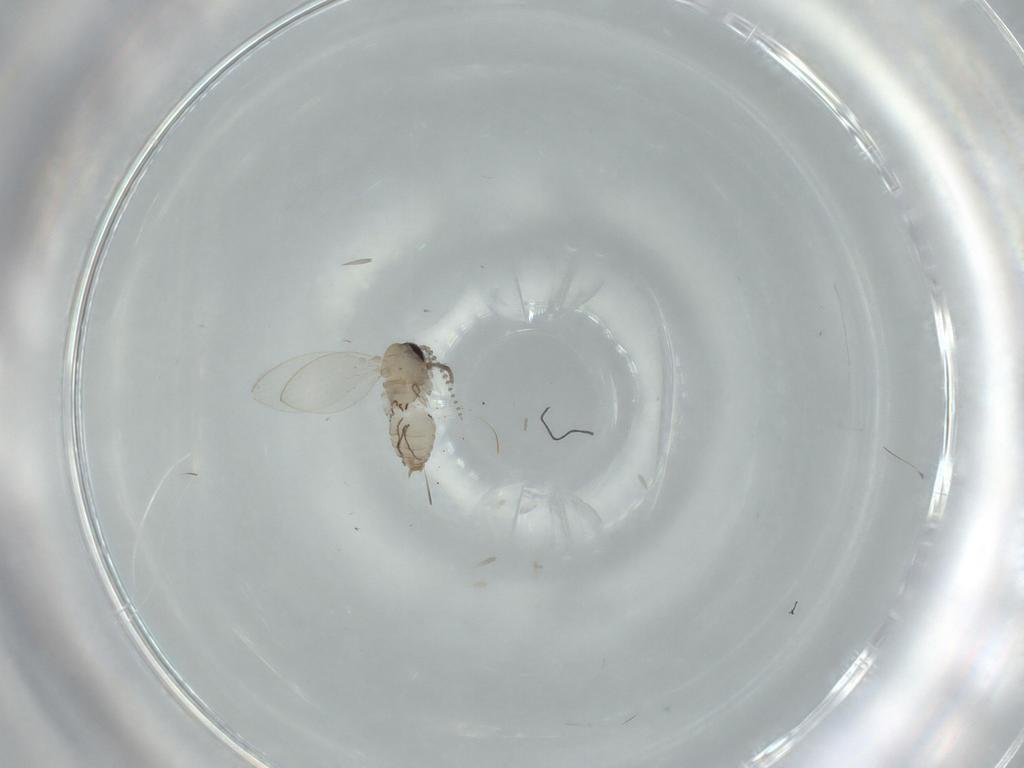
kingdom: Animalia
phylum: Arthropoda
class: Insecta
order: Diptera
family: Psychodidae
